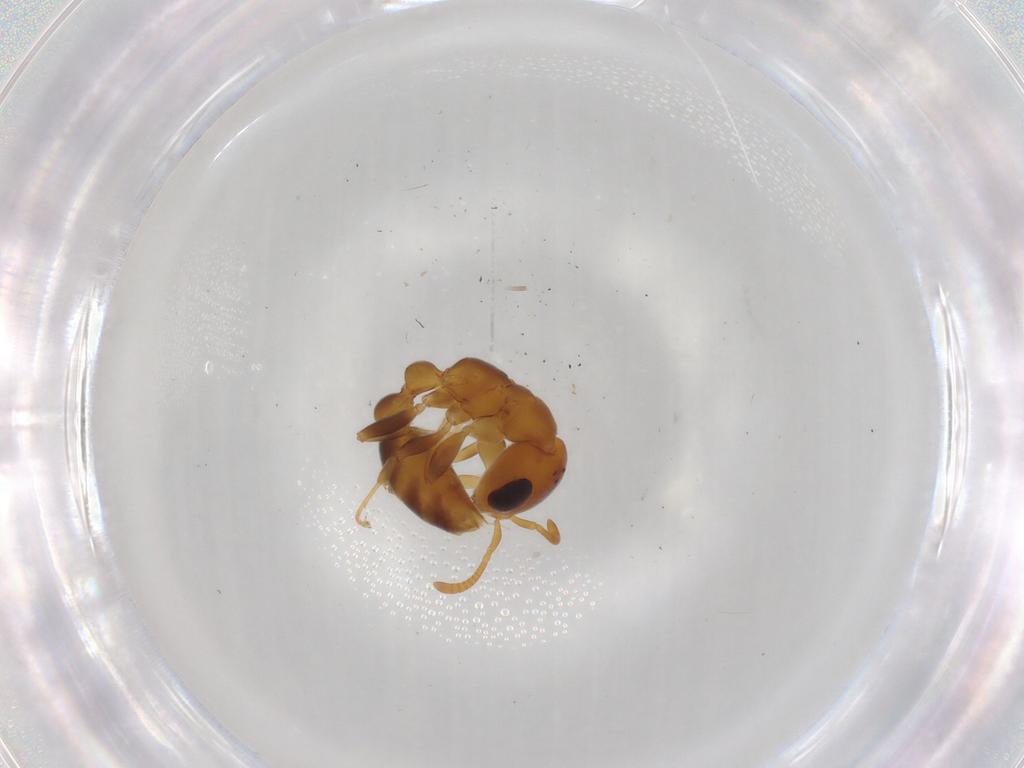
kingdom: Animalia
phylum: Arthropoda
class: Insecta
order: Hymenoptera
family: Formicidae
